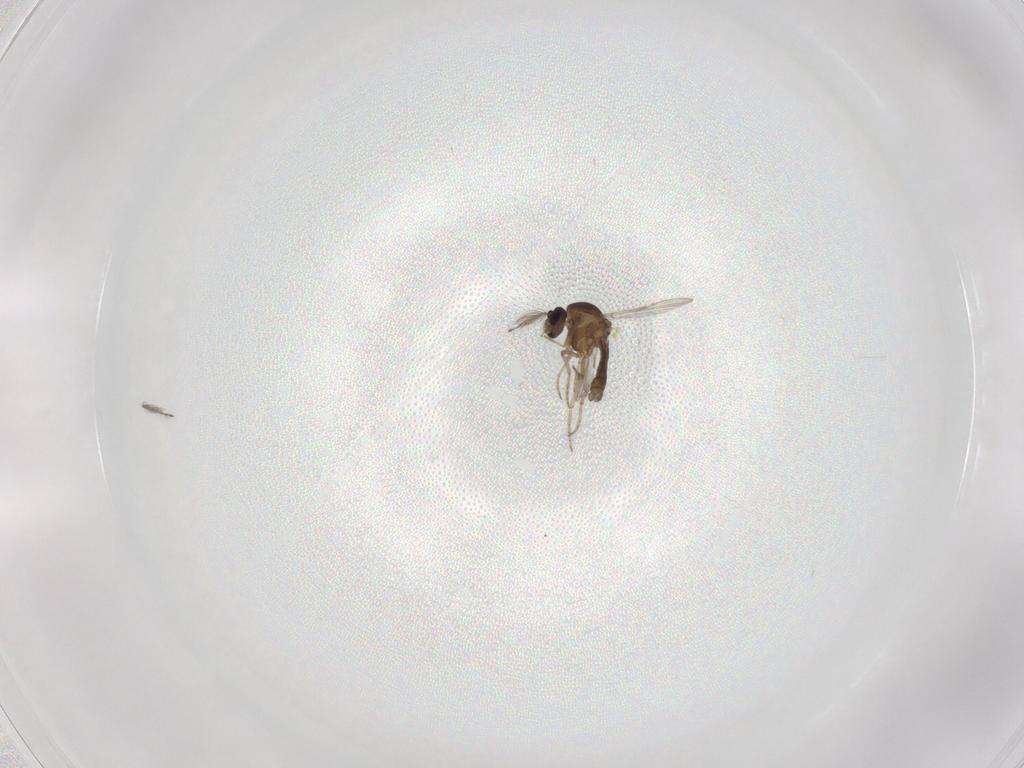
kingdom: Animalia
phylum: Arthropoda
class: Insecta
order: Diptera
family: Ceratopogonidae
